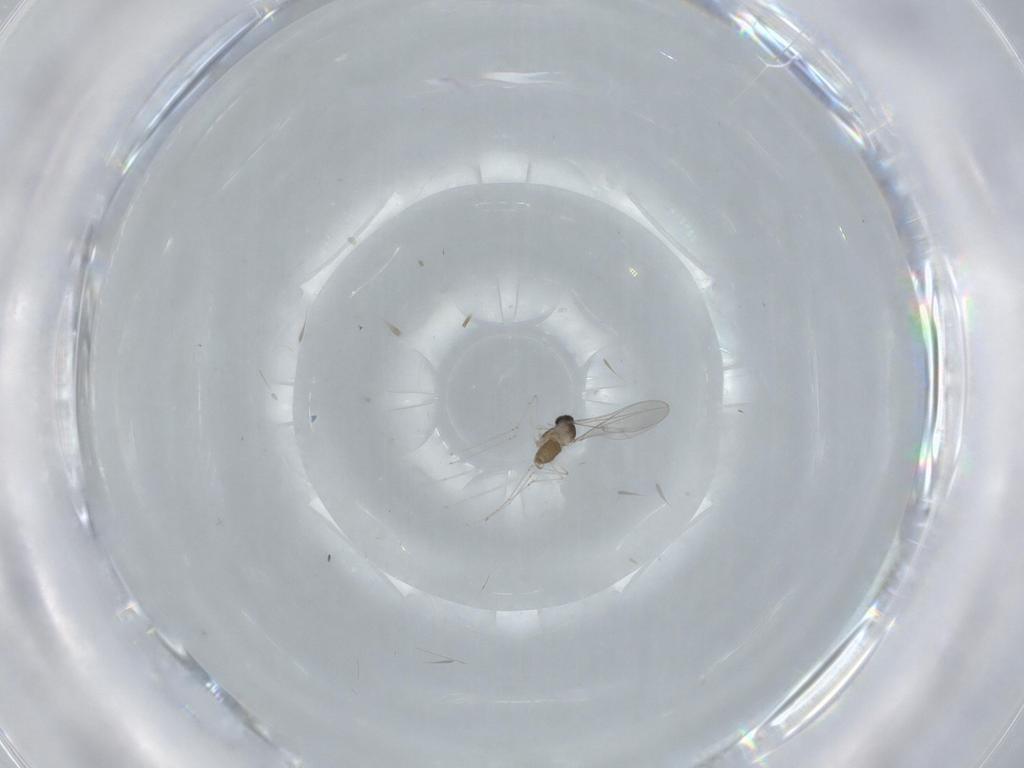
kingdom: Animalia
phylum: Arthropoda
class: Insecta
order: Diptera
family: Cecidomyiidae
